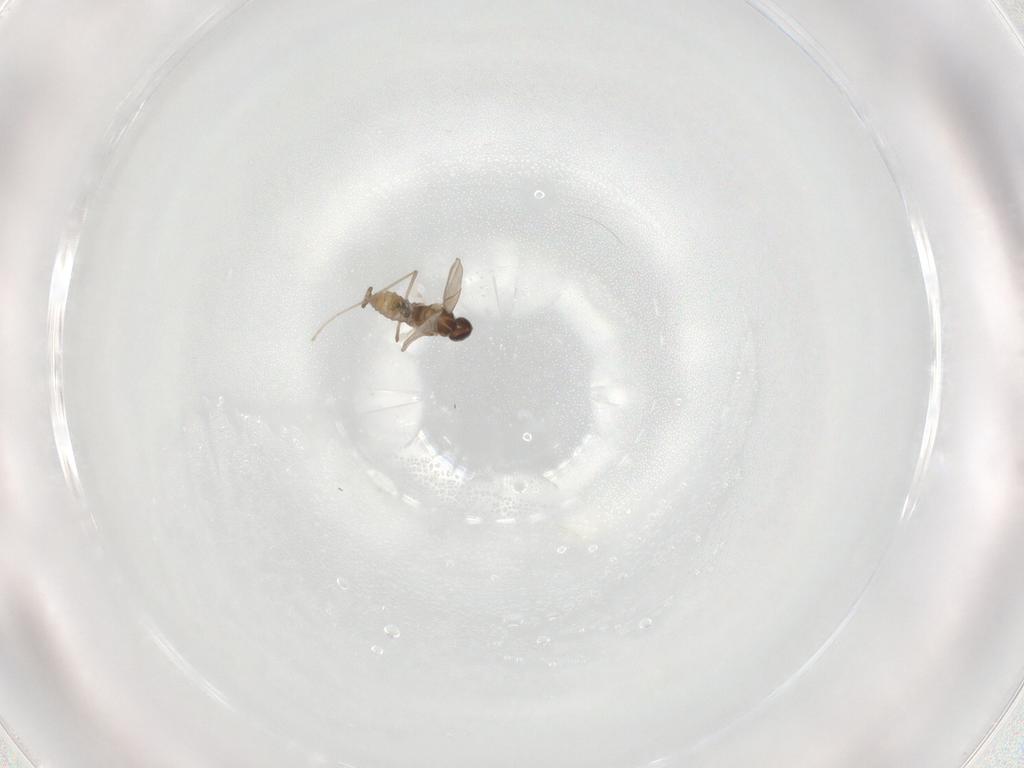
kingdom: Animalia
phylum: Arthropoda
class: Insecta
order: Diptera
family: Cecidomyiidae
